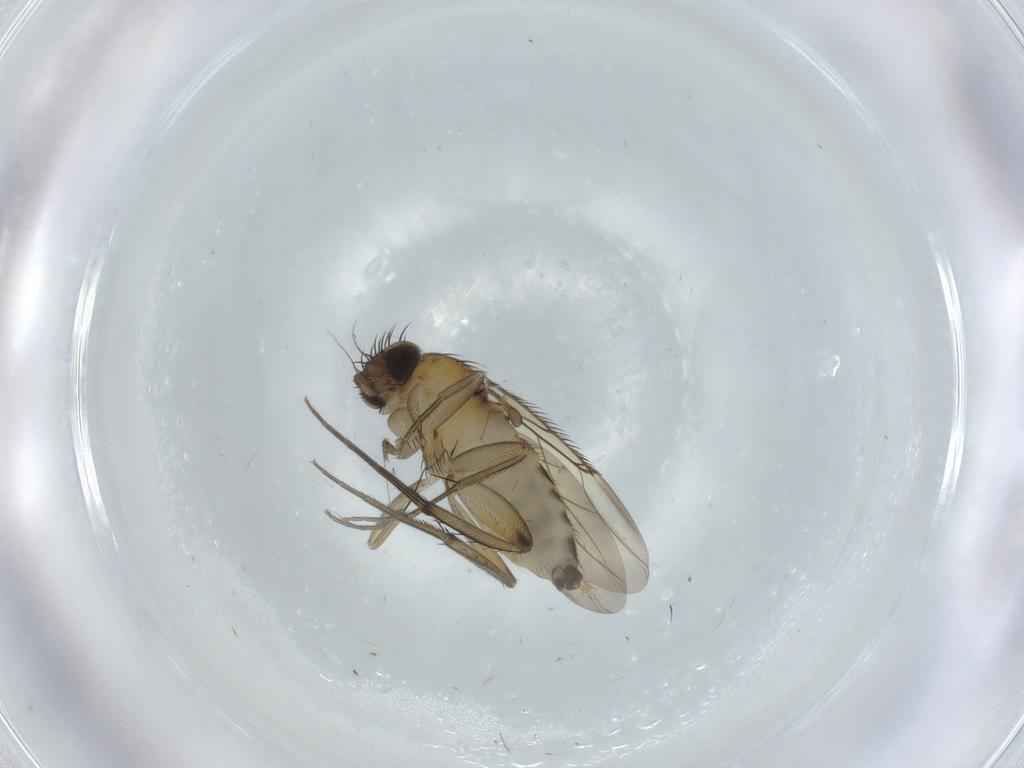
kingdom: Animalia
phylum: Arthropoda
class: Insecta
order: Diptera
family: Phoridae
